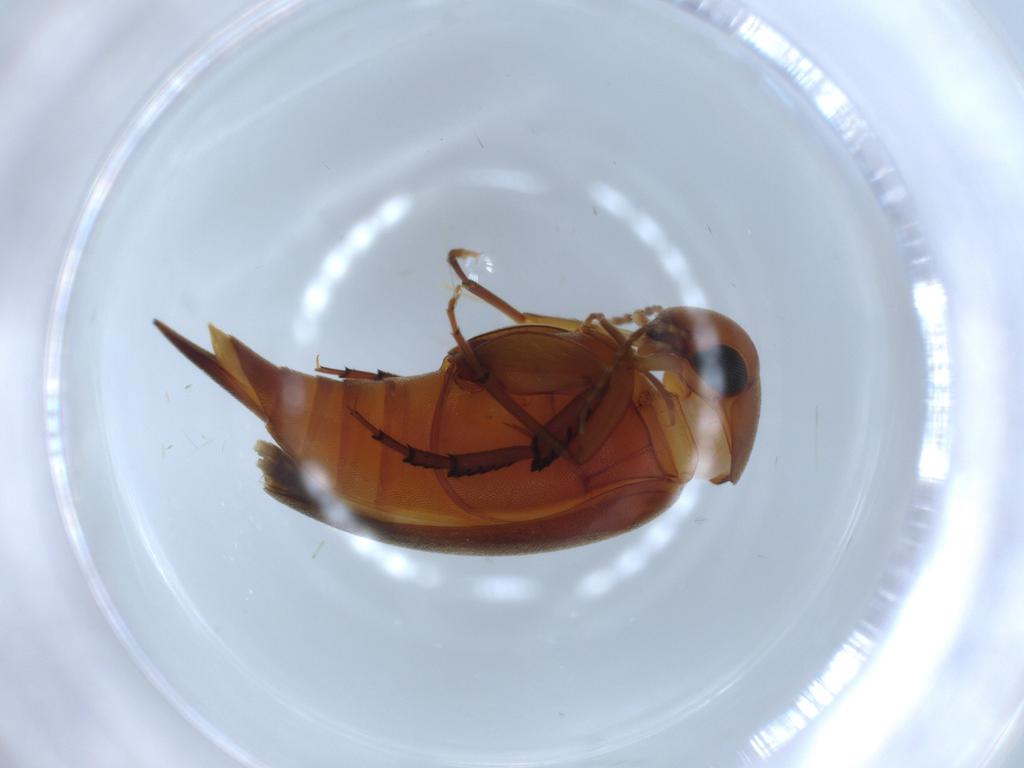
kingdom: Animalia
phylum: Arthropoda
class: Insecta
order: Coleoptera
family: Mordellidae
